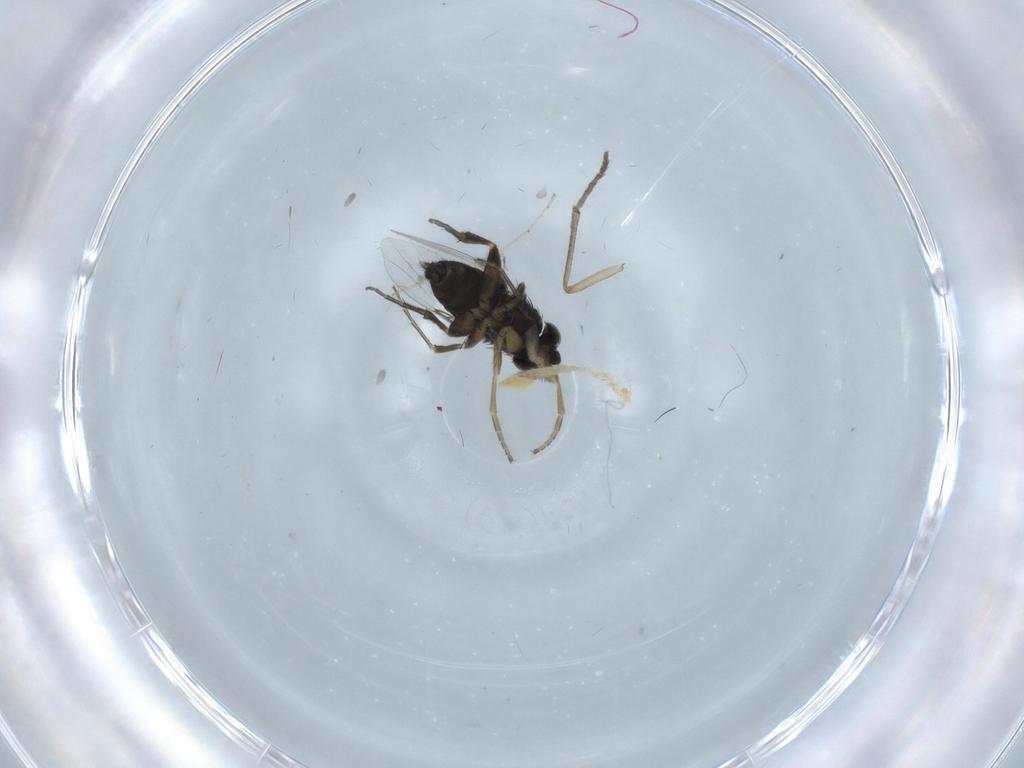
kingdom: Animalia
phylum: Arthropoda
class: Insecta
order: Diptera
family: Phoridae
